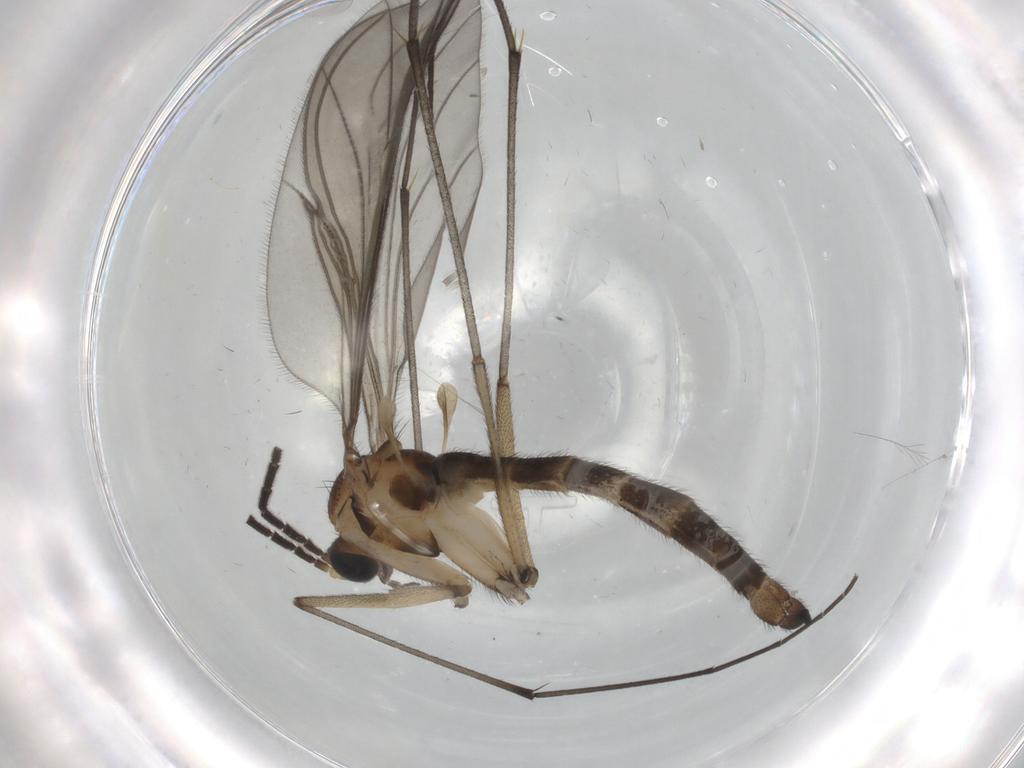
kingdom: Animalia
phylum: Arthropoda
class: Insecta
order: Diptera
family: Sciaridae
